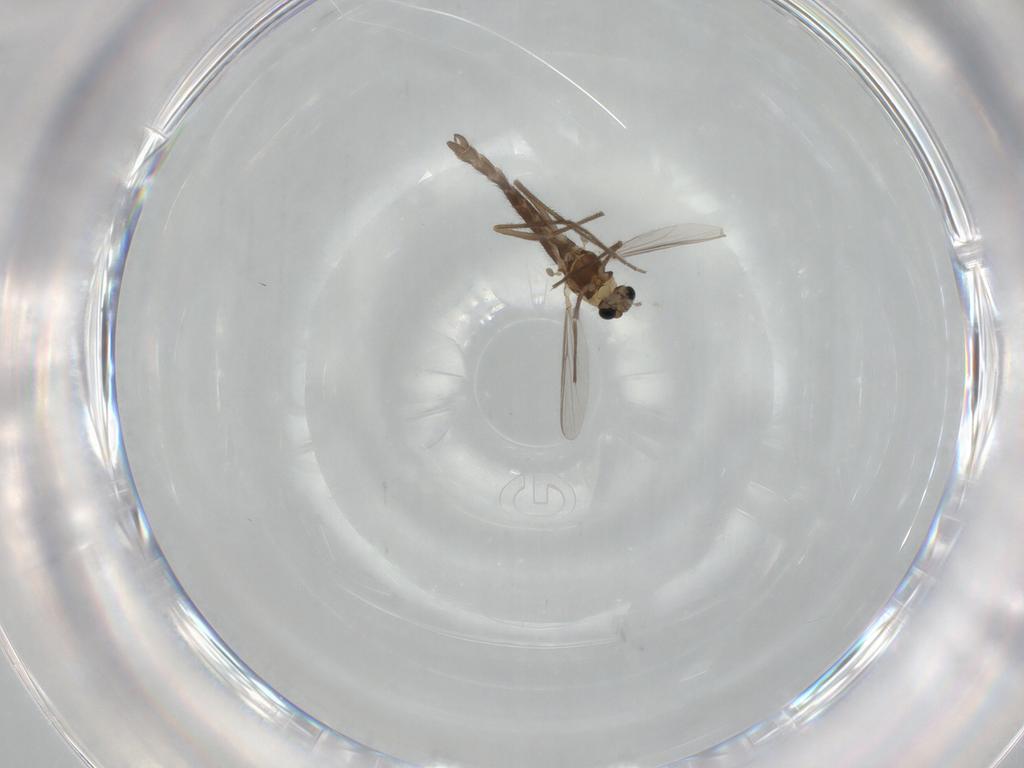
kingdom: Animalia
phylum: Arthropoda
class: Insecta
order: Diptera
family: Chironomidae
